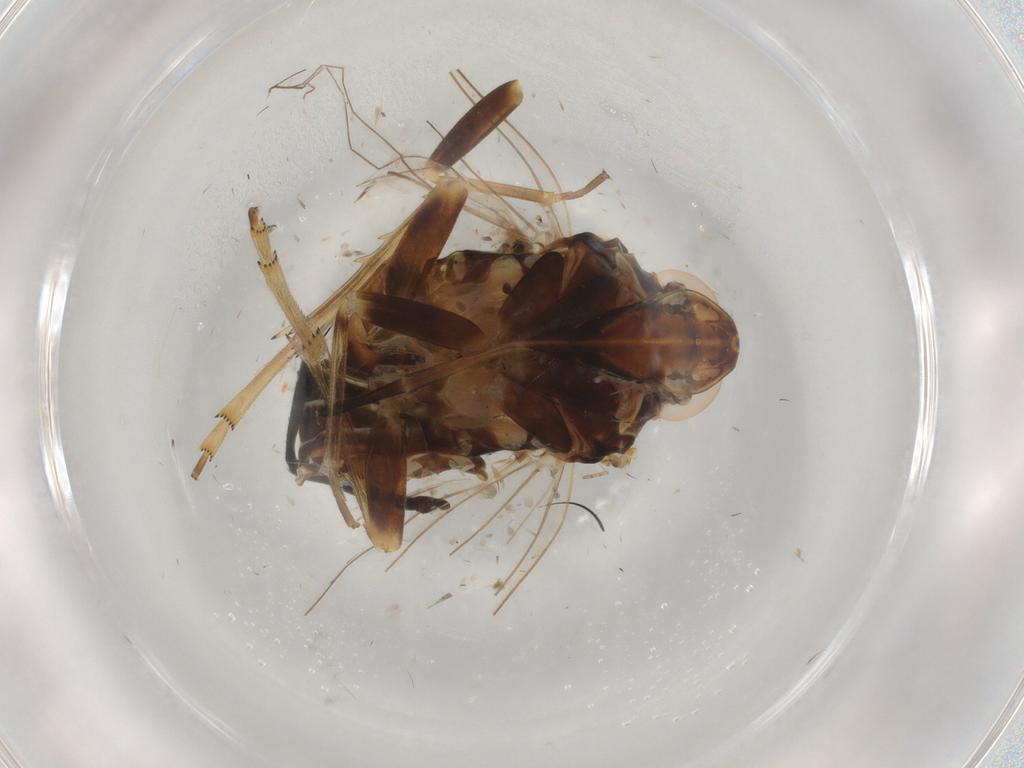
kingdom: Animalia
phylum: Arthropoda
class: Insecta
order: Hemiptera
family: Cixiidae
